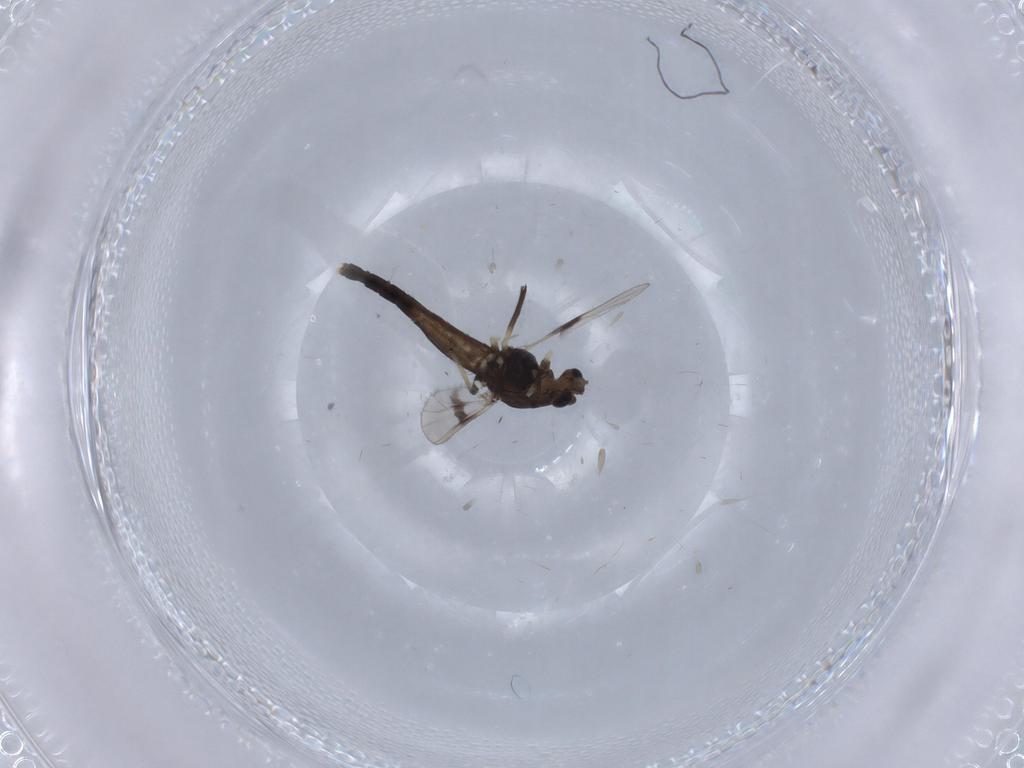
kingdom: Animalia
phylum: Arthropoda
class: Insecta
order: Diptera
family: Chironomidae
